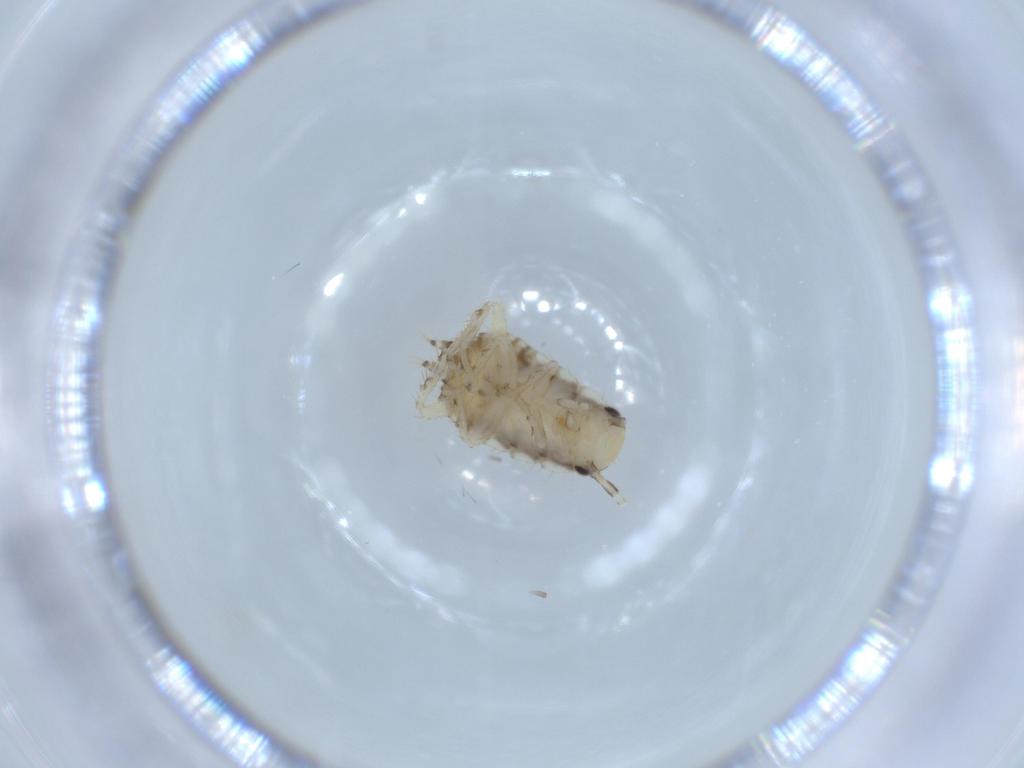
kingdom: Animalia
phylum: Arthropoda
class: Insecta
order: Blattodea
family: Ectobiidae
